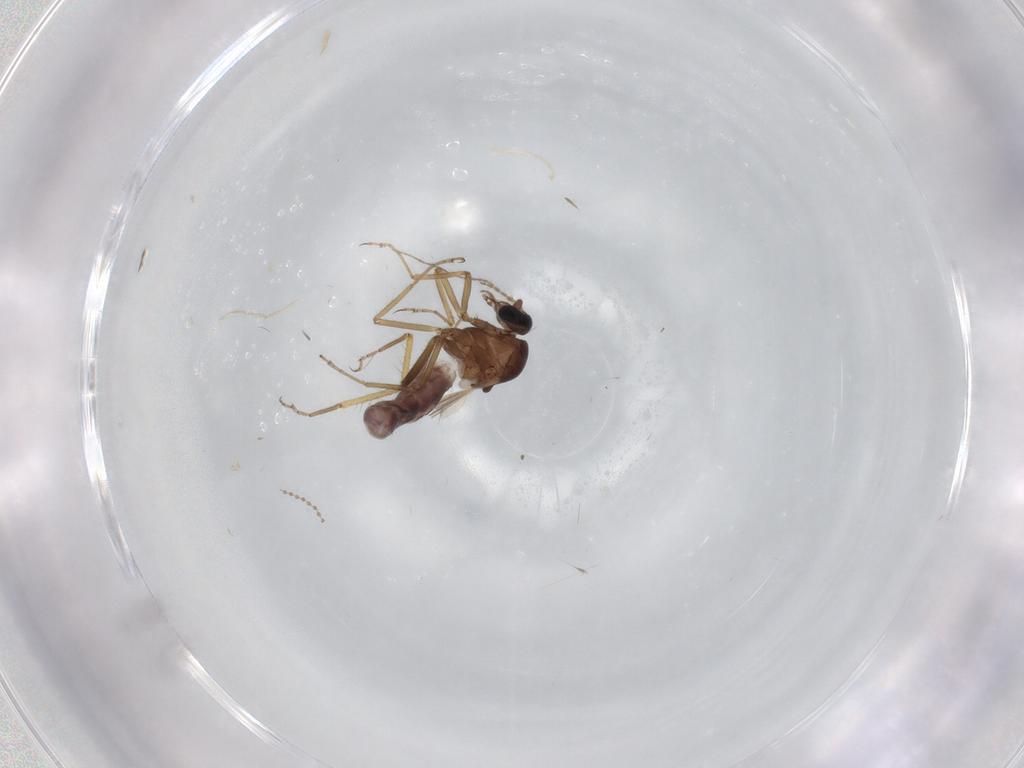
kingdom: Animalia
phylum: Arthropoda
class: Insecta
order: Diptera
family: Ceratopogonidae
